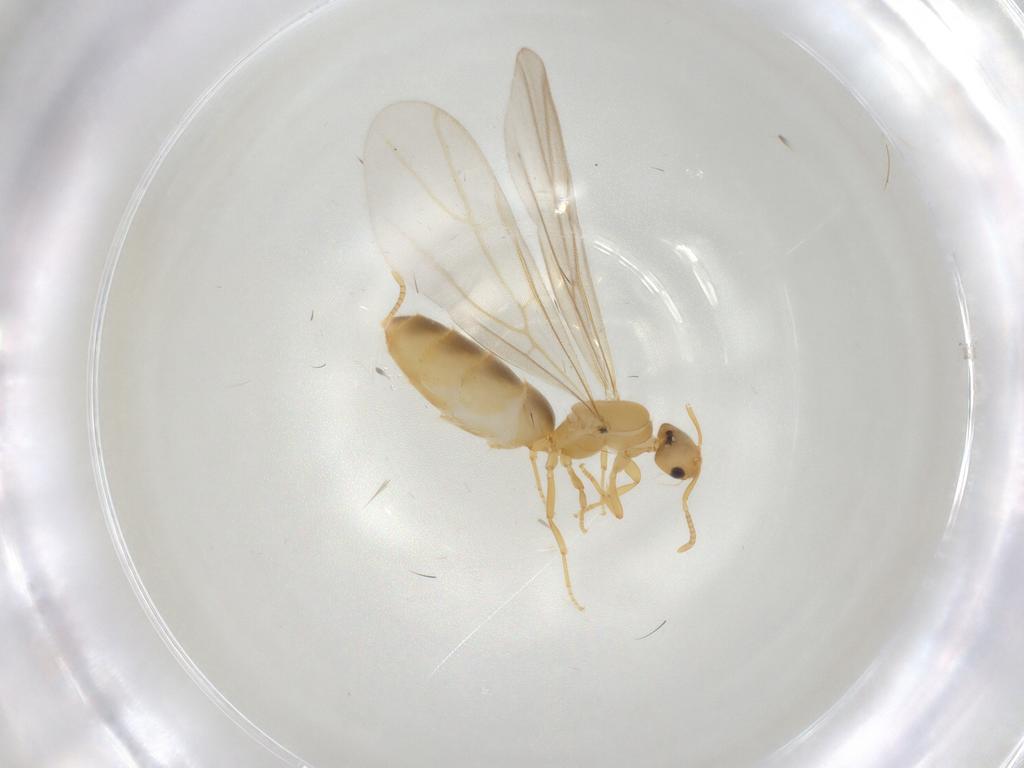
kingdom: Animalia
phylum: Arthropoda
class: Insecta
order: Hymenoptera
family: Formicidae
